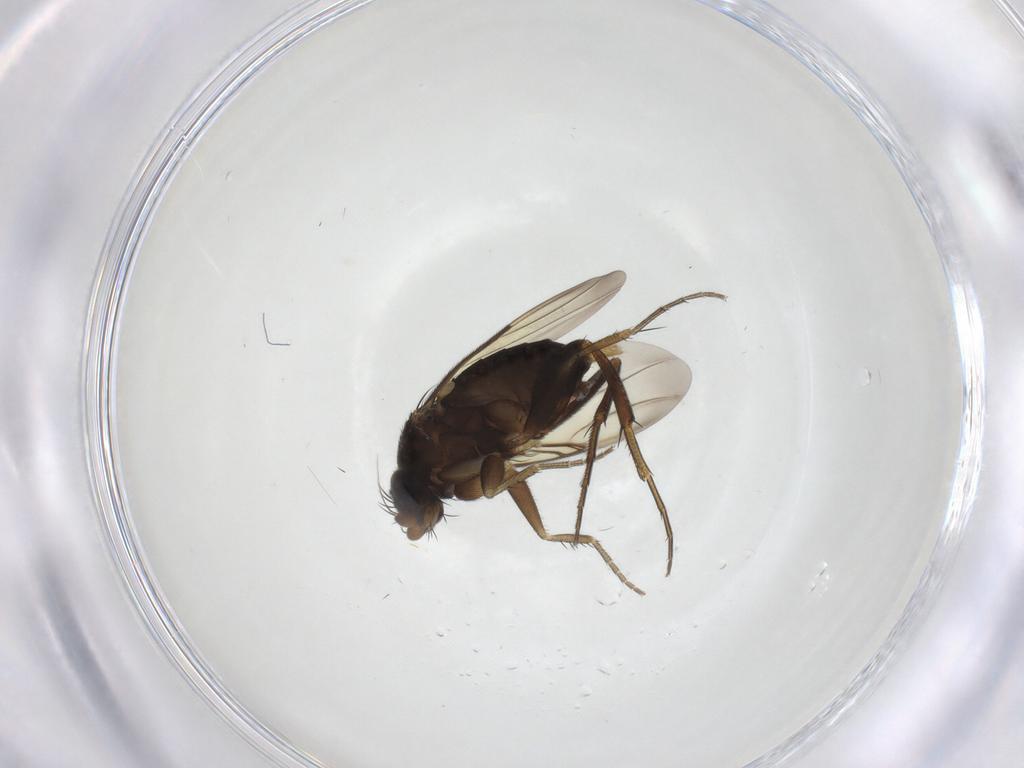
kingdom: Animalia
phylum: Arthropoda
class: Insecta
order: Diptera
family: Phoridae
